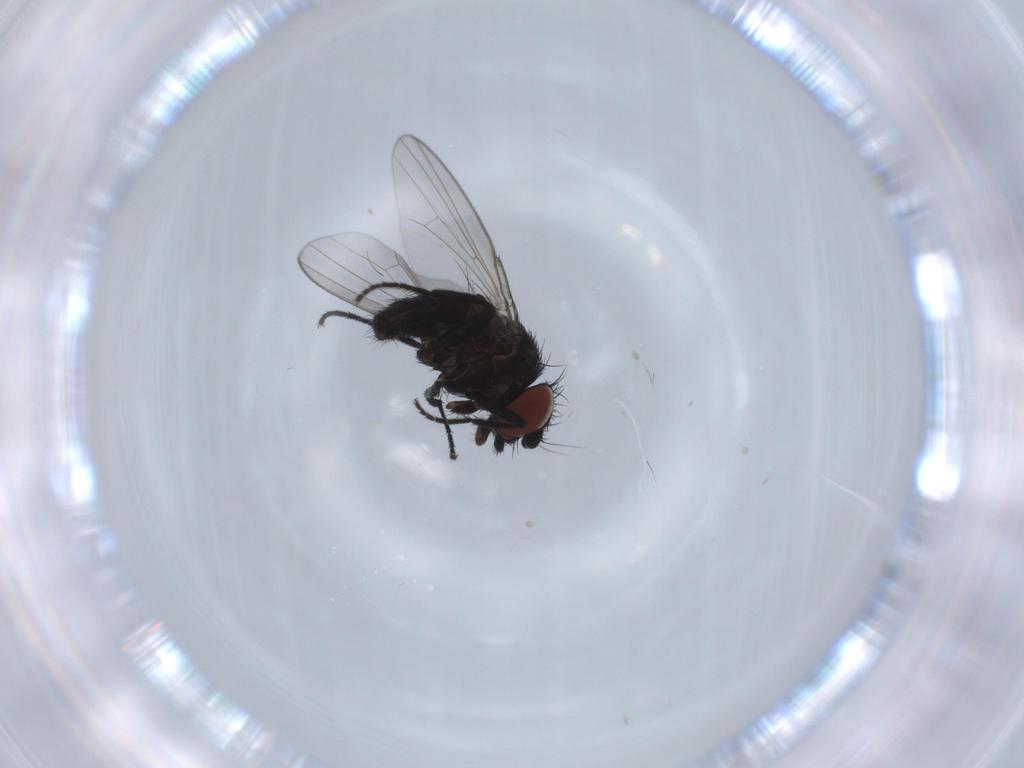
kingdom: Animalia
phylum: Arthropoda
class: Insecta
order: Diptera
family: Milichiidae
